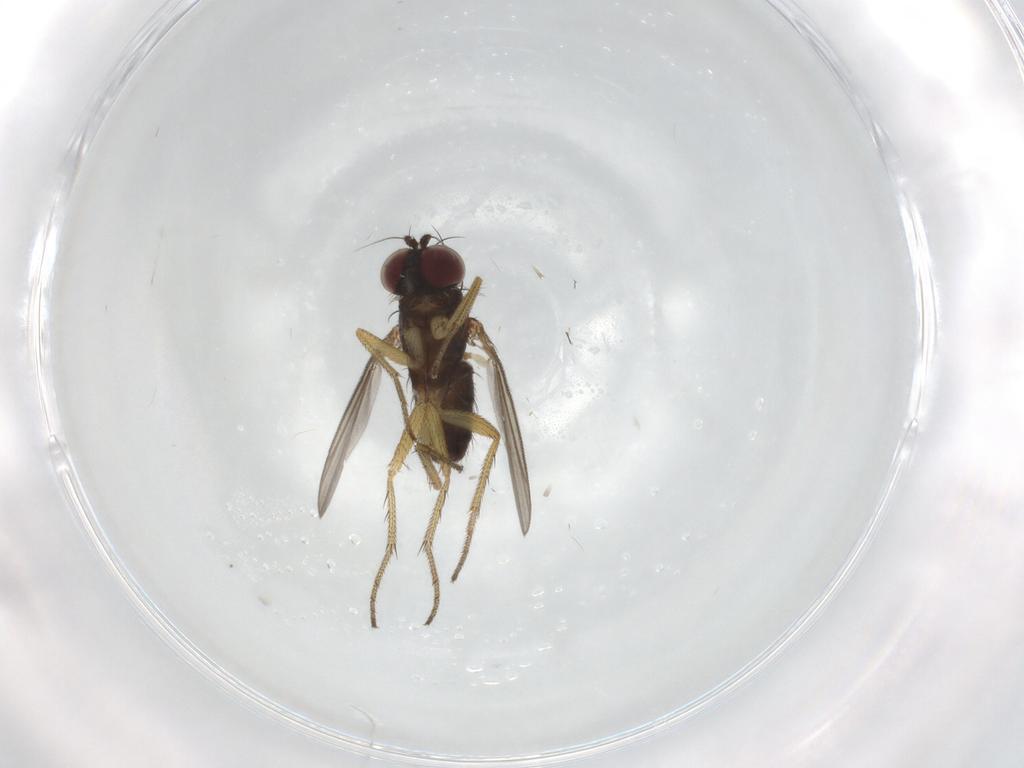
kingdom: Animalia
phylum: Arthropoda
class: Insecta
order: Diptera
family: Dolichopodidae
